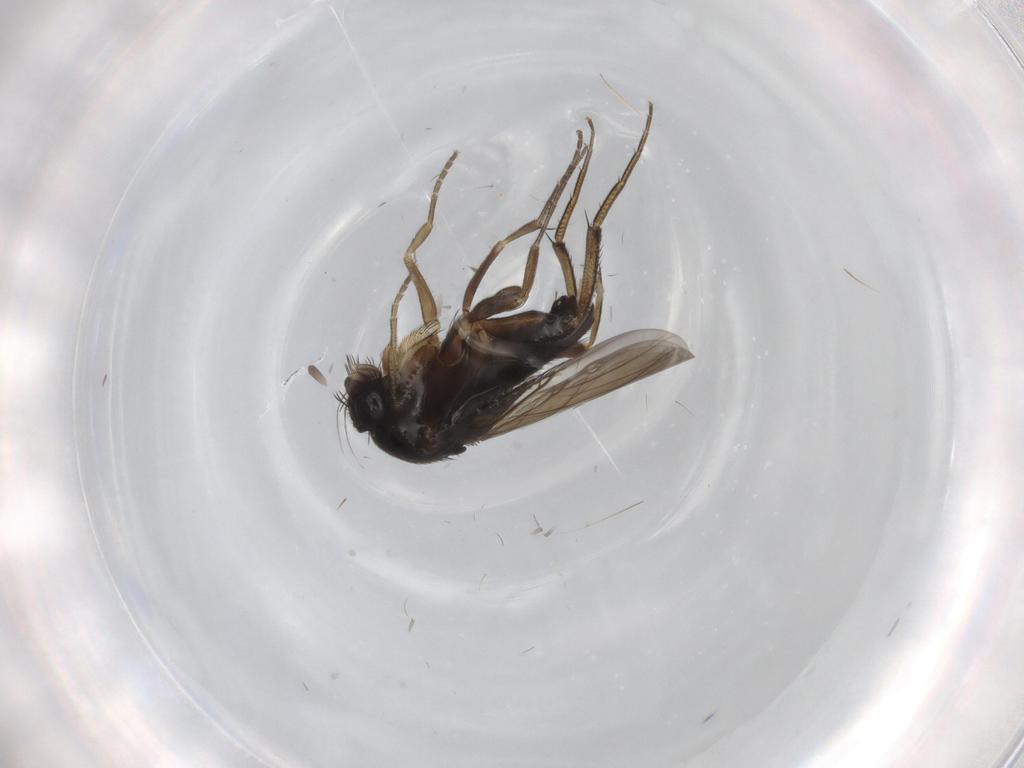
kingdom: Animalia
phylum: Arthropoda
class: Insecta
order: Diptera
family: Phoridae
